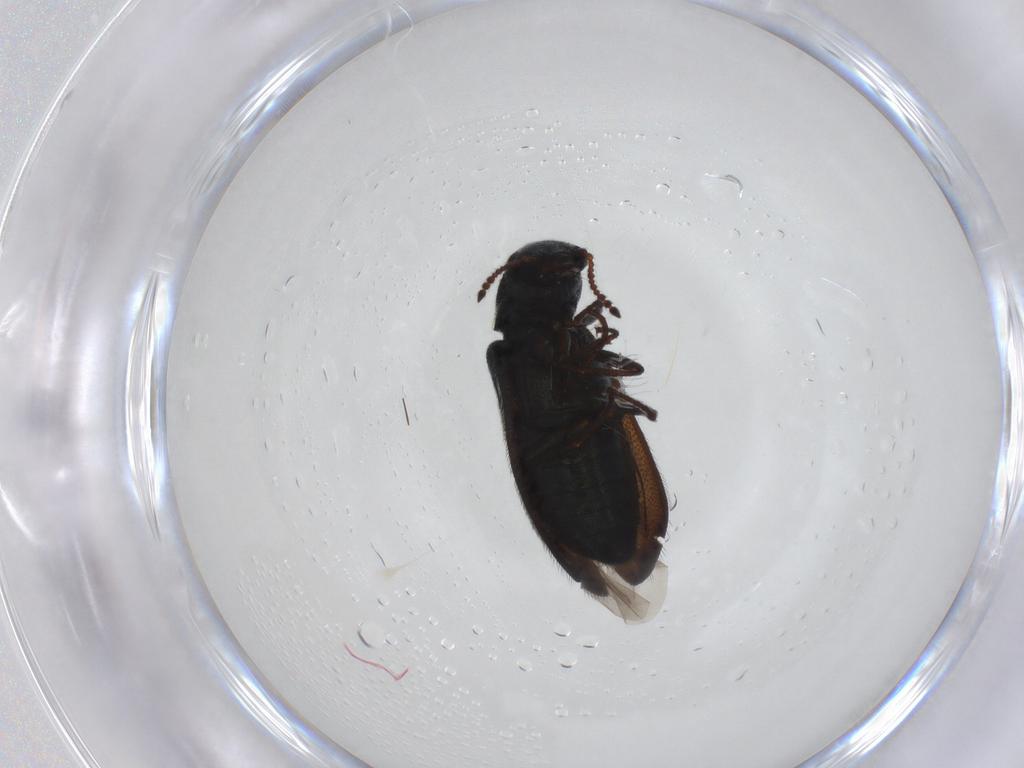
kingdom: Animalia
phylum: Arthropoda
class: Insecta
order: Coleoptera
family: Melyridae
